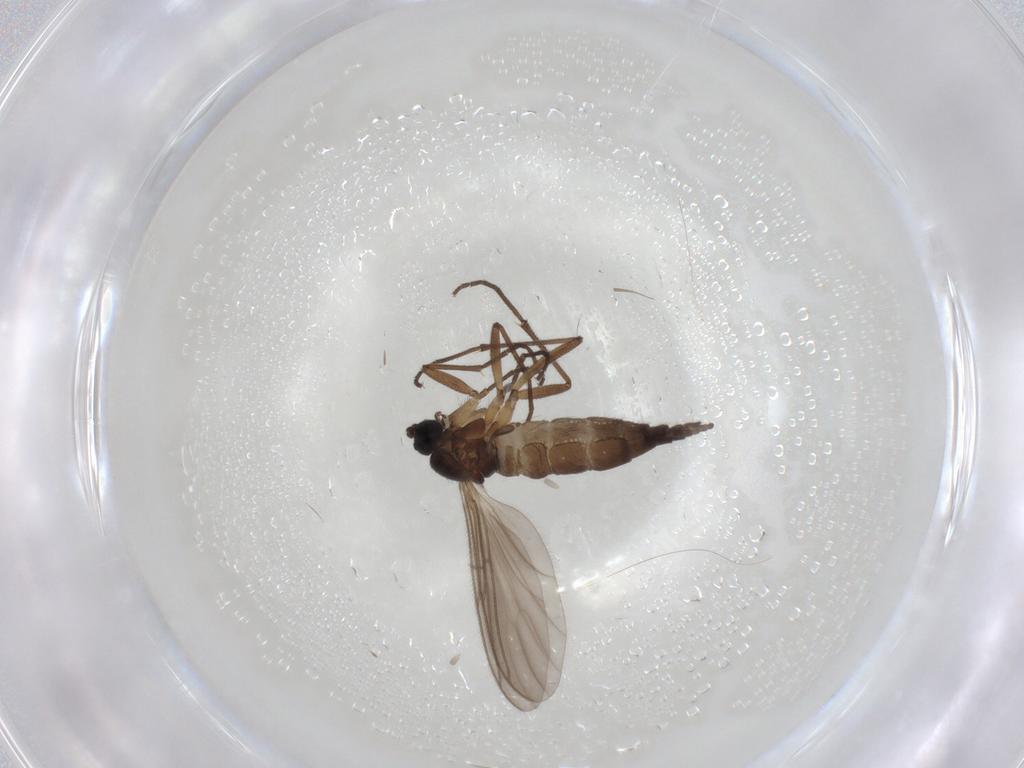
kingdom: Animalia
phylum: Arthropoda
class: Insecta
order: Diptera
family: Sciaridae
